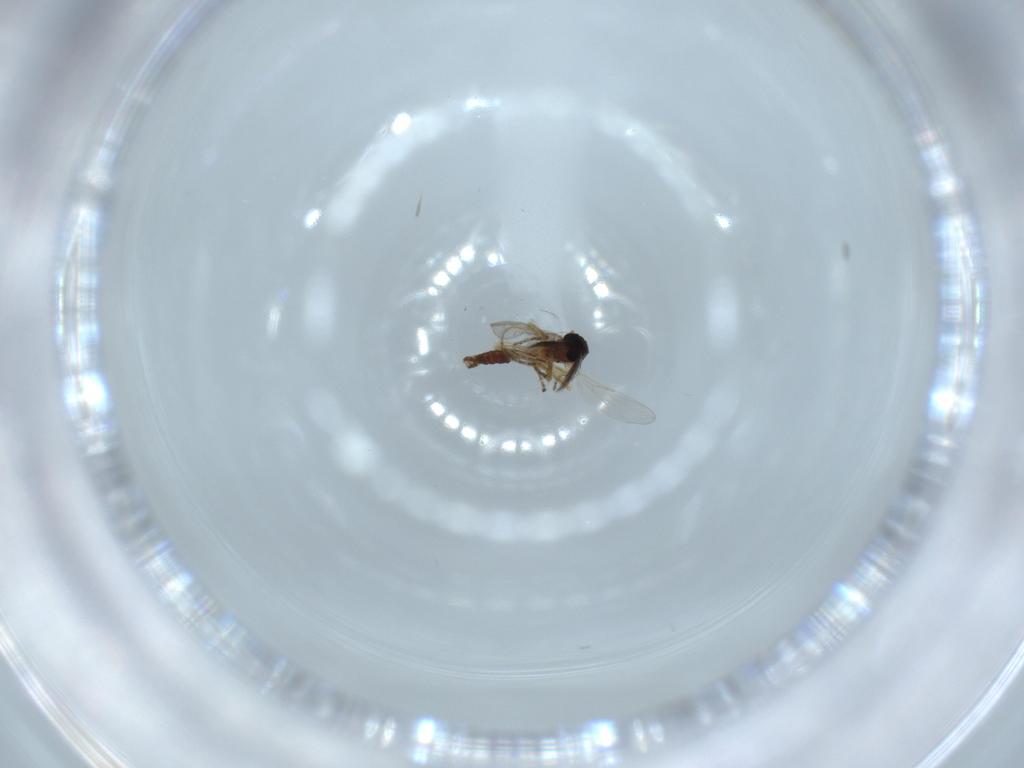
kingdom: Animalia
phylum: Arthropoda
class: Insecta
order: Diptera
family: Ceratopogonidae
